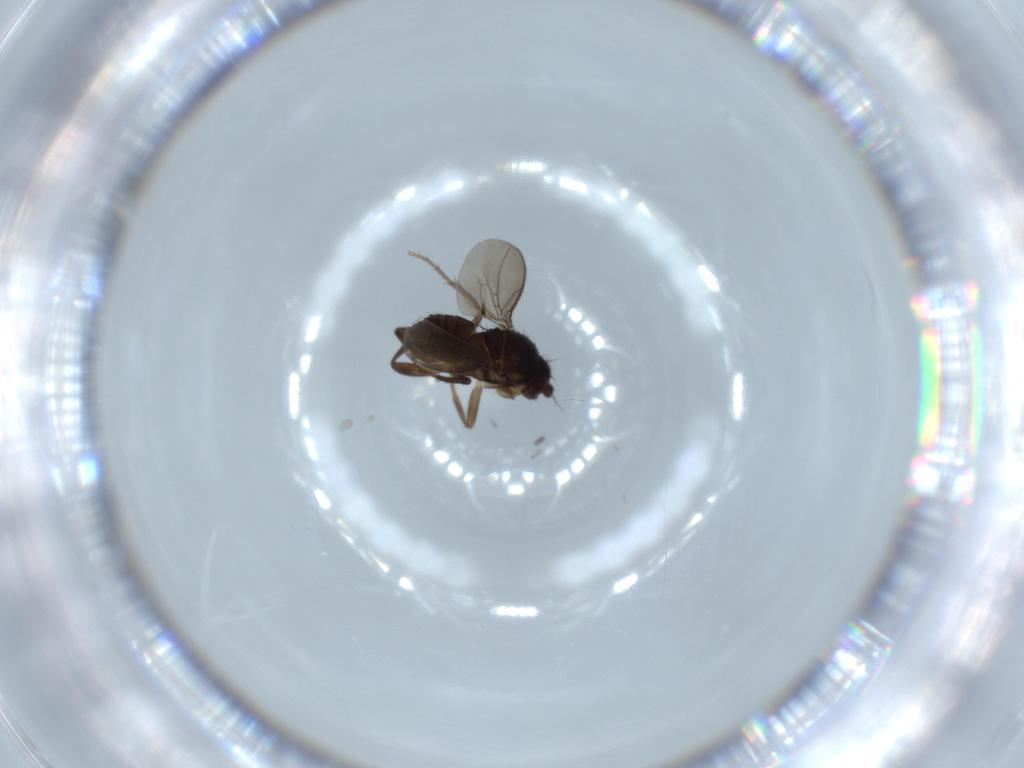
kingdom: Animalia
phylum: Arthropoda
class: Insecta
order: Diptera
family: Sphaeroceridae
